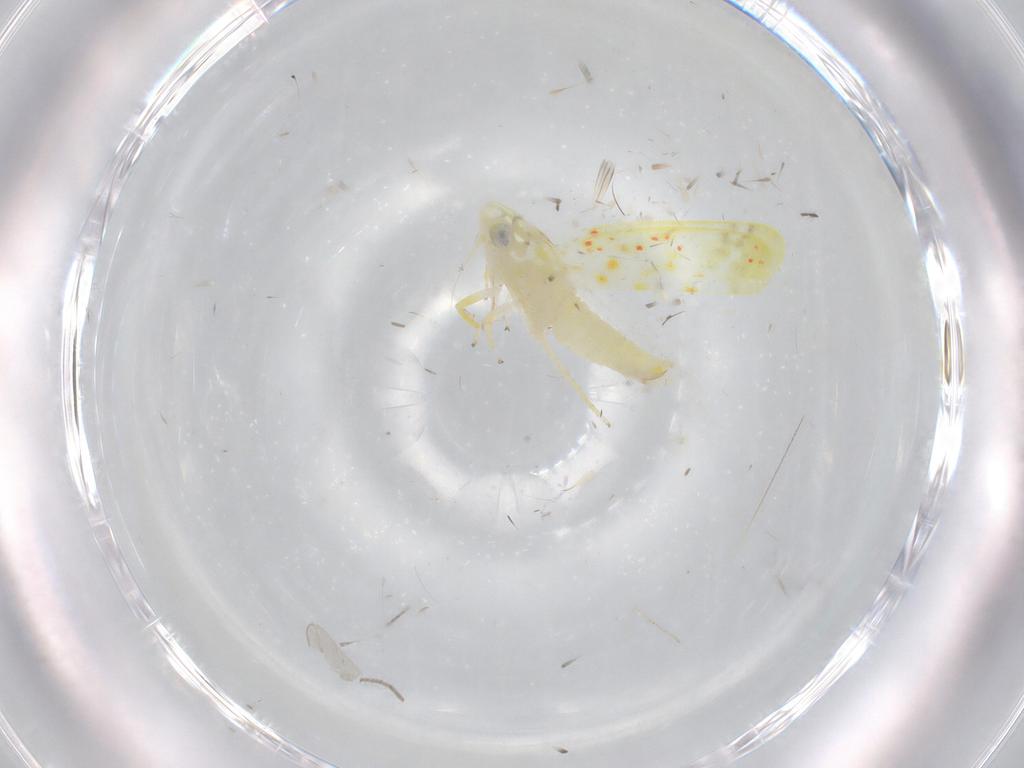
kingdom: Animalia
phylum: Arthropoda
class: Insecta
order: Hemiptera
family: Cicadellidae
